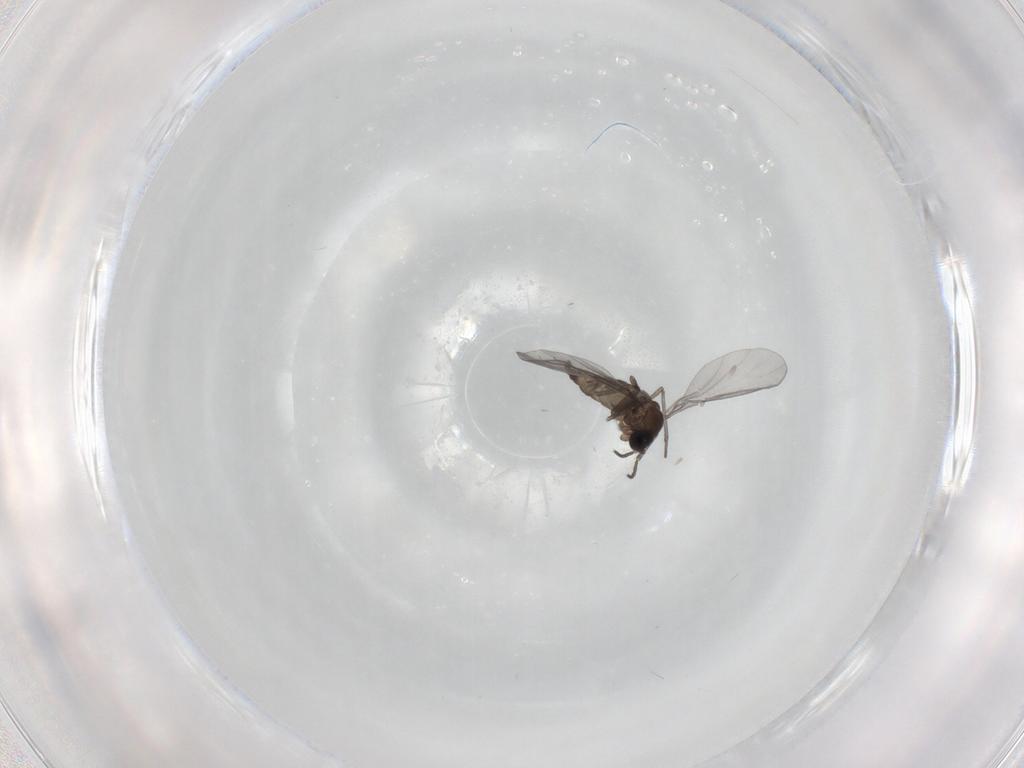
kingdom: Animalia
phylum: Arthropoda
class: Insecta
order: Diptera
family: Sciaridae
